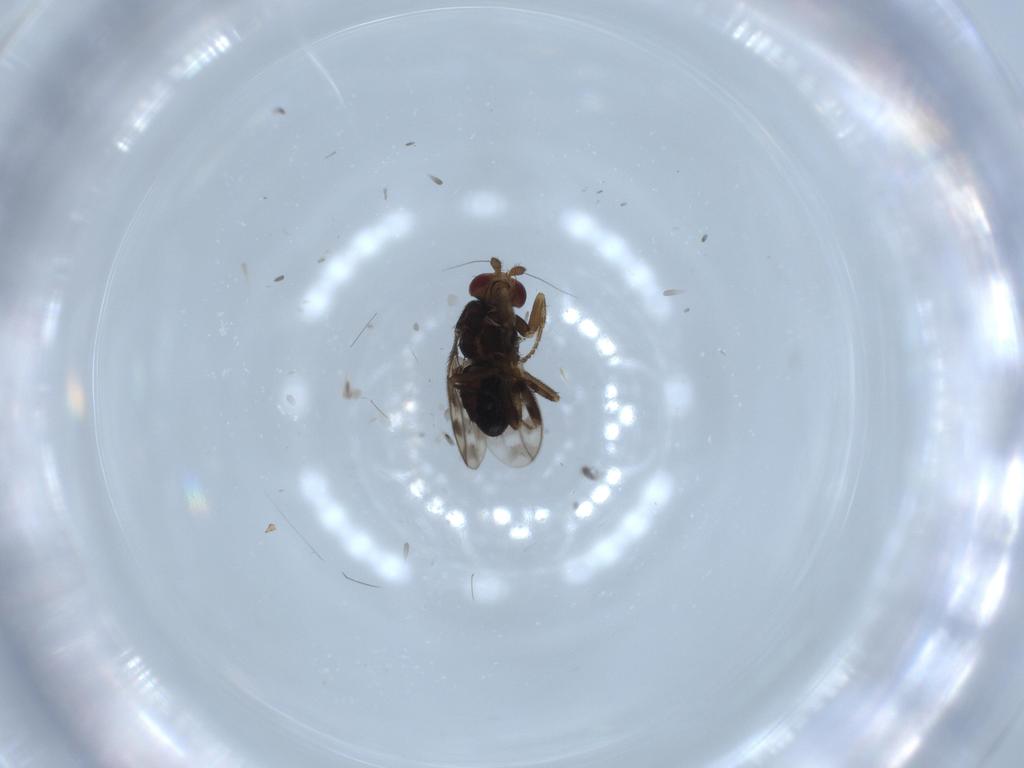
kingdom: Animalia
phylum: Arthropoda
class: Insecta
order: Diptera
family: Sphaeroceridae
